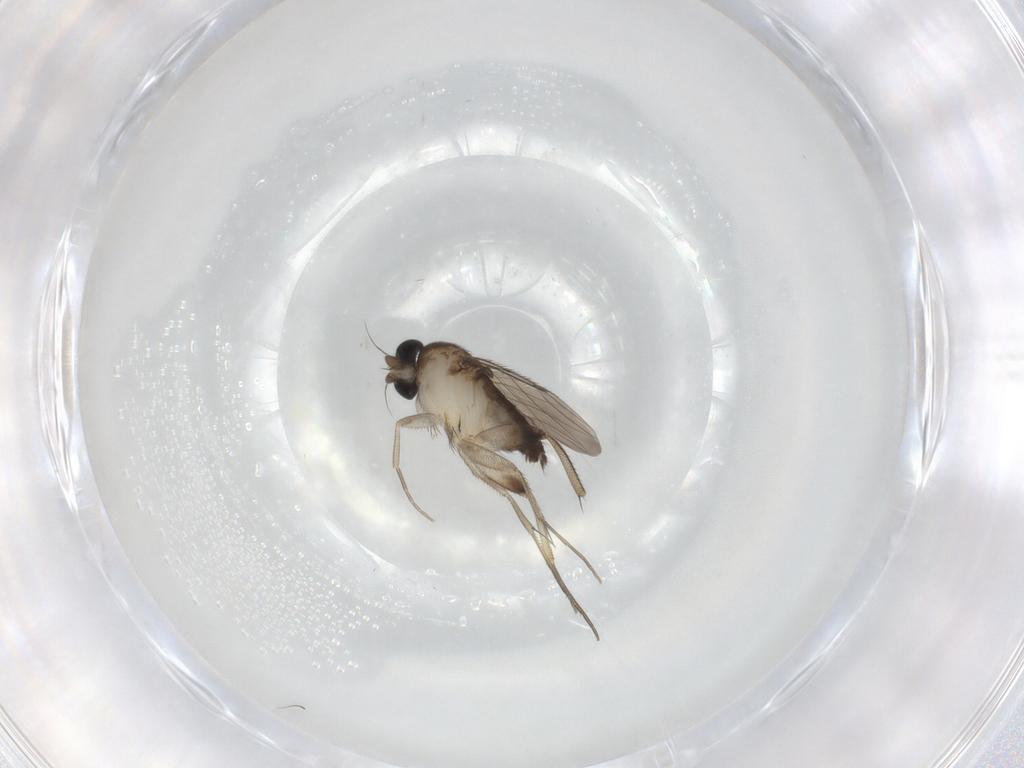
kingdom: Animalia
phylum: Arthropoda
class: Insecta
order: Diptera
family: Phoridae
